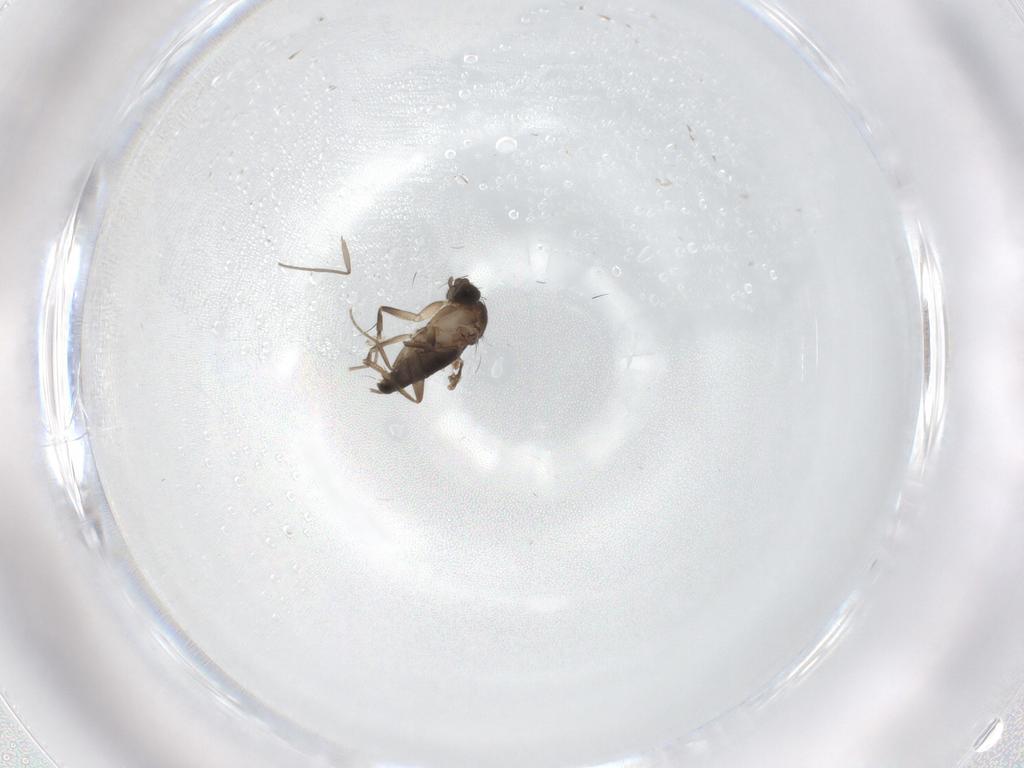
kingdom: Animalia
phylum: Arthropoda
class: Insecta
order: Diptera
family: Phoridae
